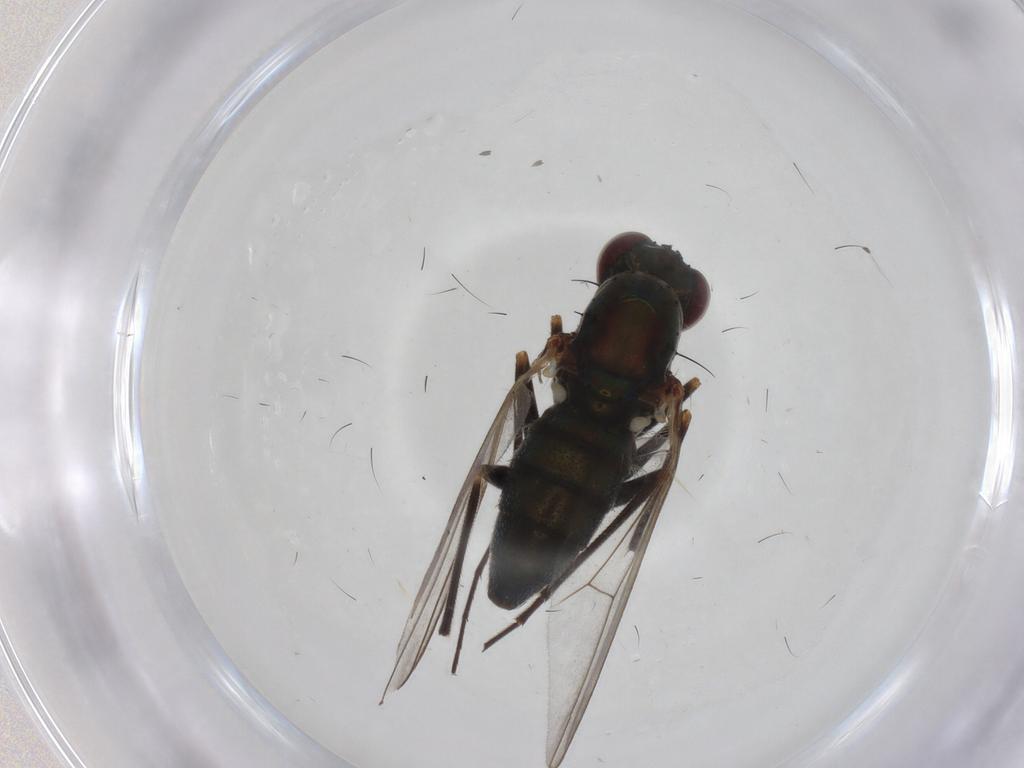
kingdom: Animalia
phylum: Arthropoda
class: Insecta
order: Diptera
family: Dolichopodidae
